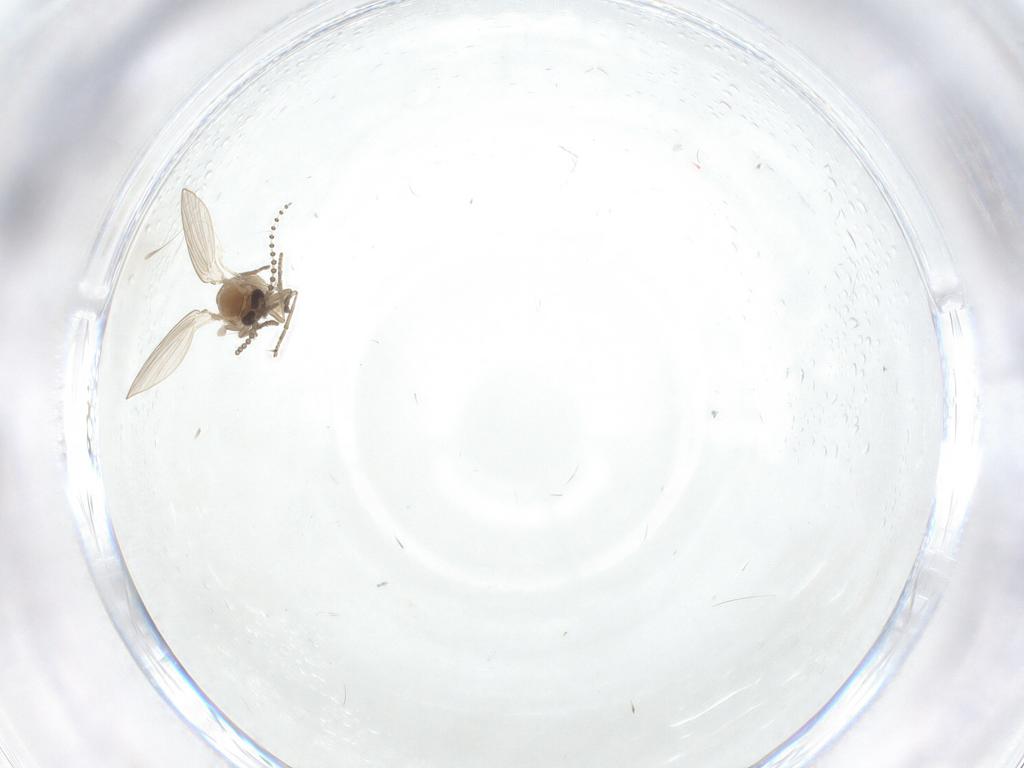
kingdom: Animalia
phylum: Arthropoda
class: Insecta
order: Diptera
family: Psychodidae
